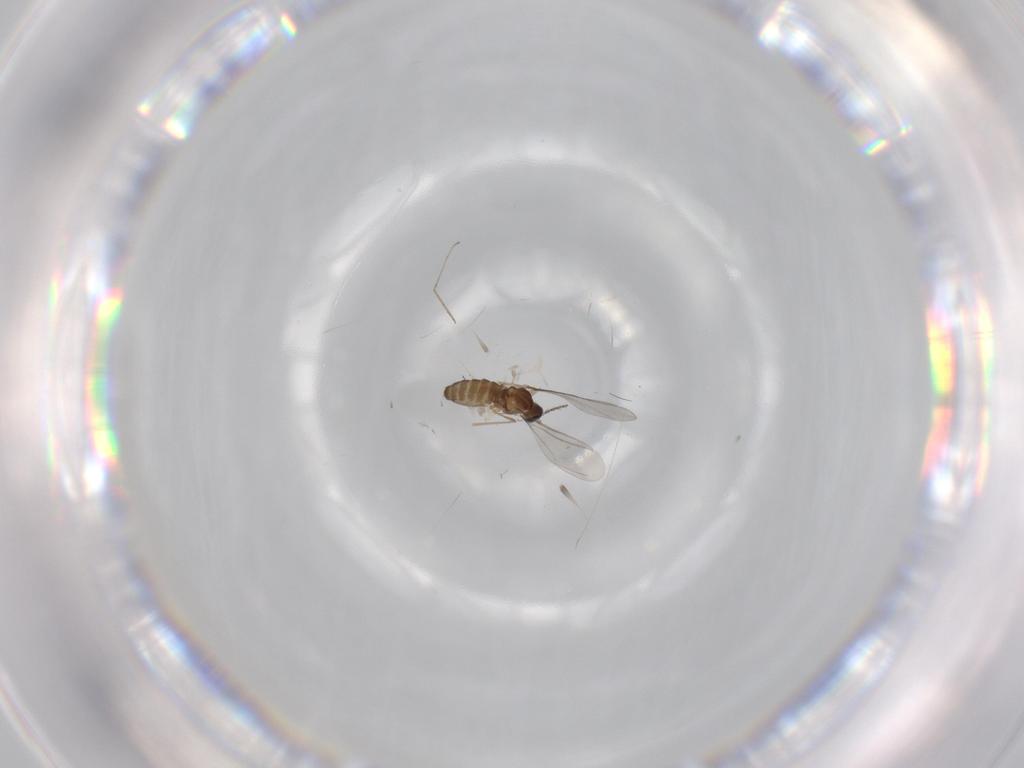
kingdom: Animalia
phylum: Arthropoda
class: Insecta
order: Diptera
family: Cecidomyiidae
